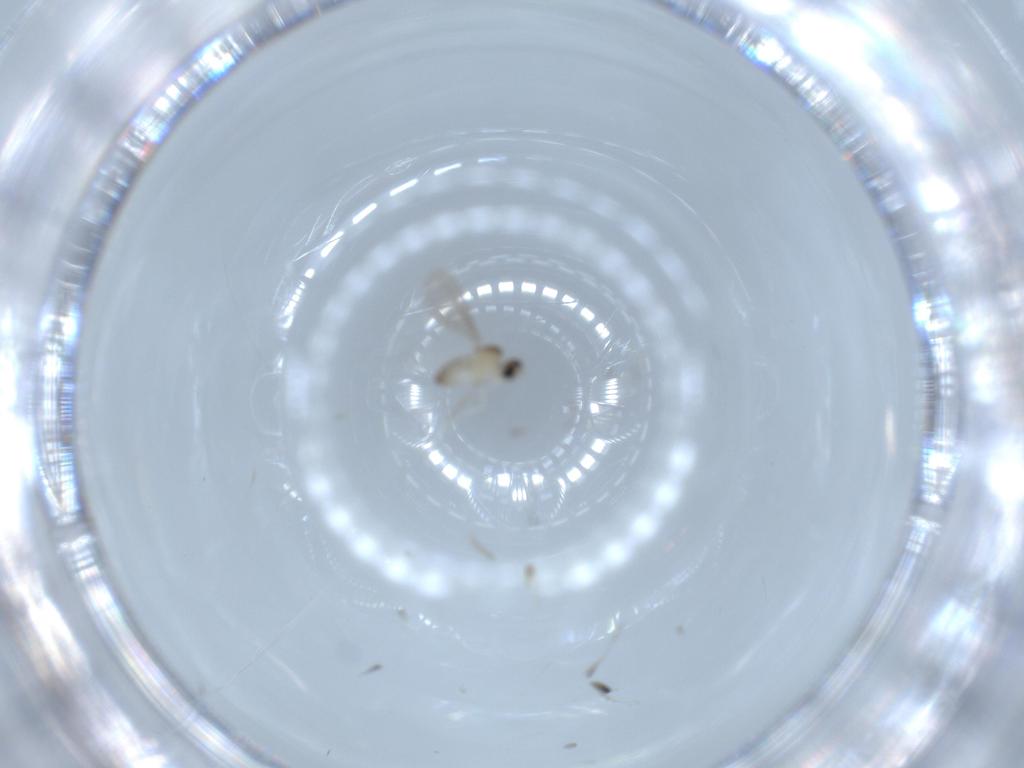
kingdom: Animalia
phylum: Arthropoda
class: Insecta
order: Diptera
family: Cecidomyiidae
